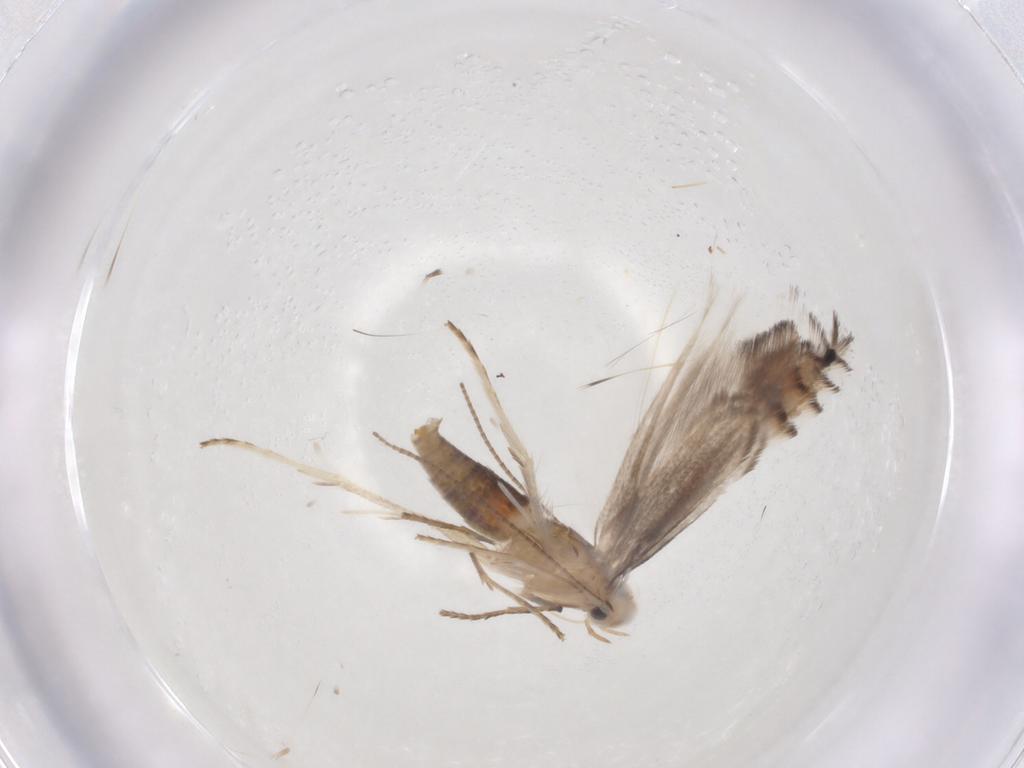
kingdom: Animalia
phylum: Arthropoda
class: Insecta
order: Lepidoptera
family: Gracillariidae
